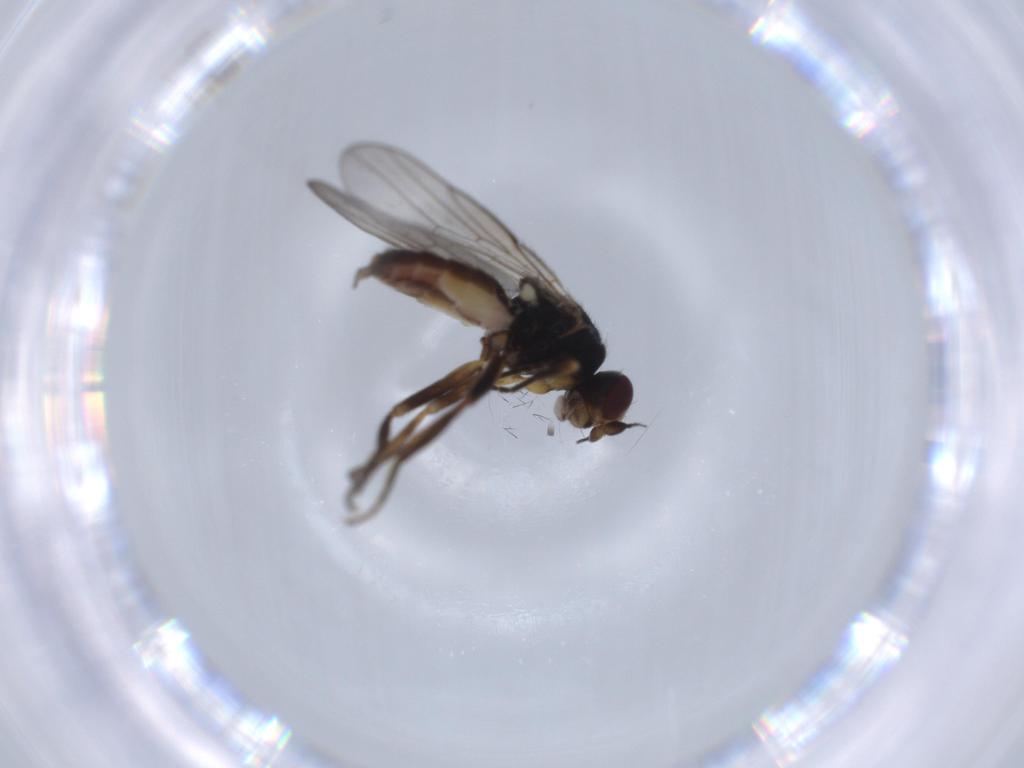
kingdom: Animalia
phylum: Arthropoda
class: Insecta
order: Diptera
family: Chloropidae
